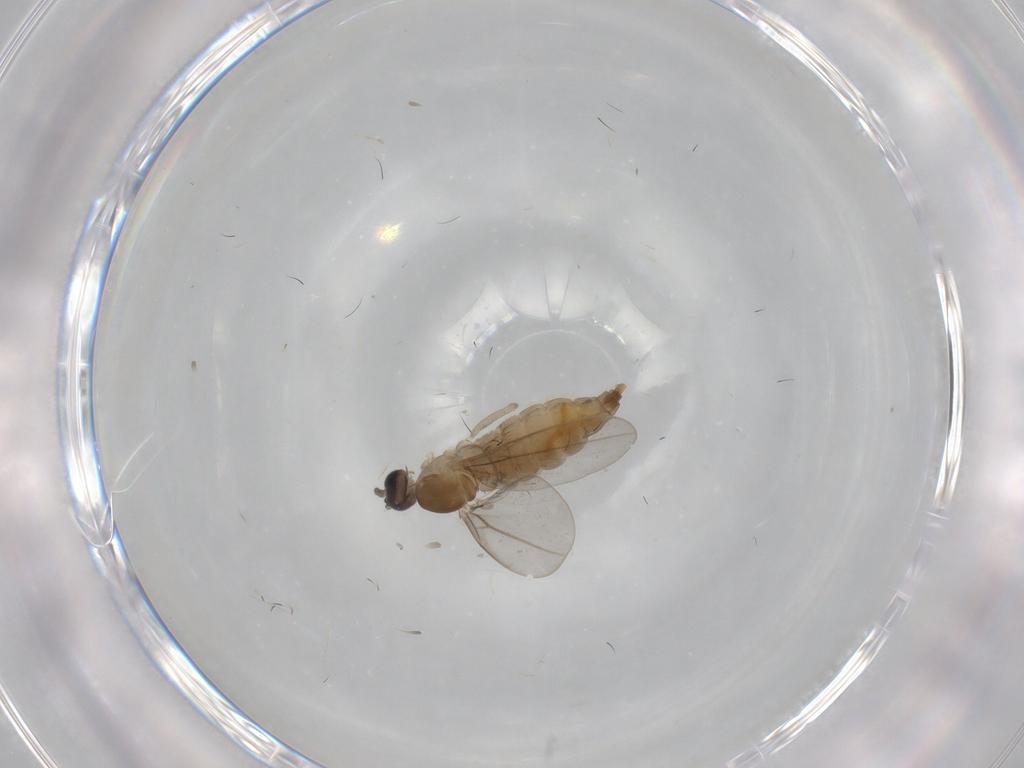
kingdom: Animalia
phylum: Arthropoda
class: Insecta
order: Diptera
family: Cecidomyiidae
